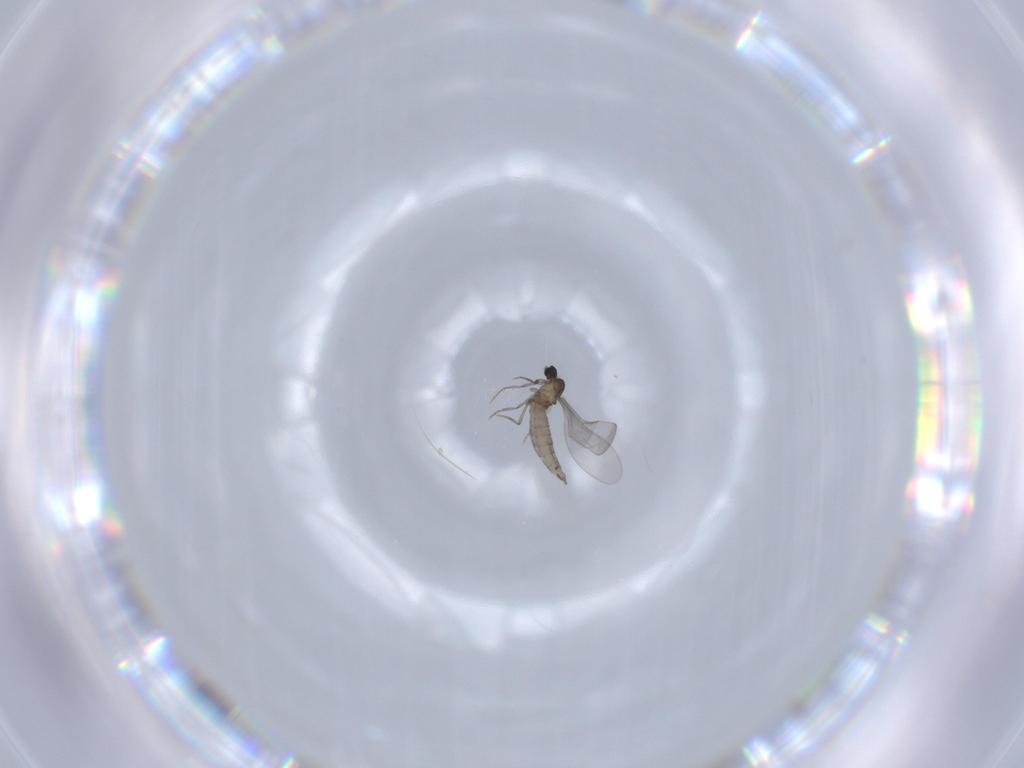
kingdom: Animalia
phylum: Arthropoda
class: Insecta
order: Diptera
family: Cecidomyiidae
